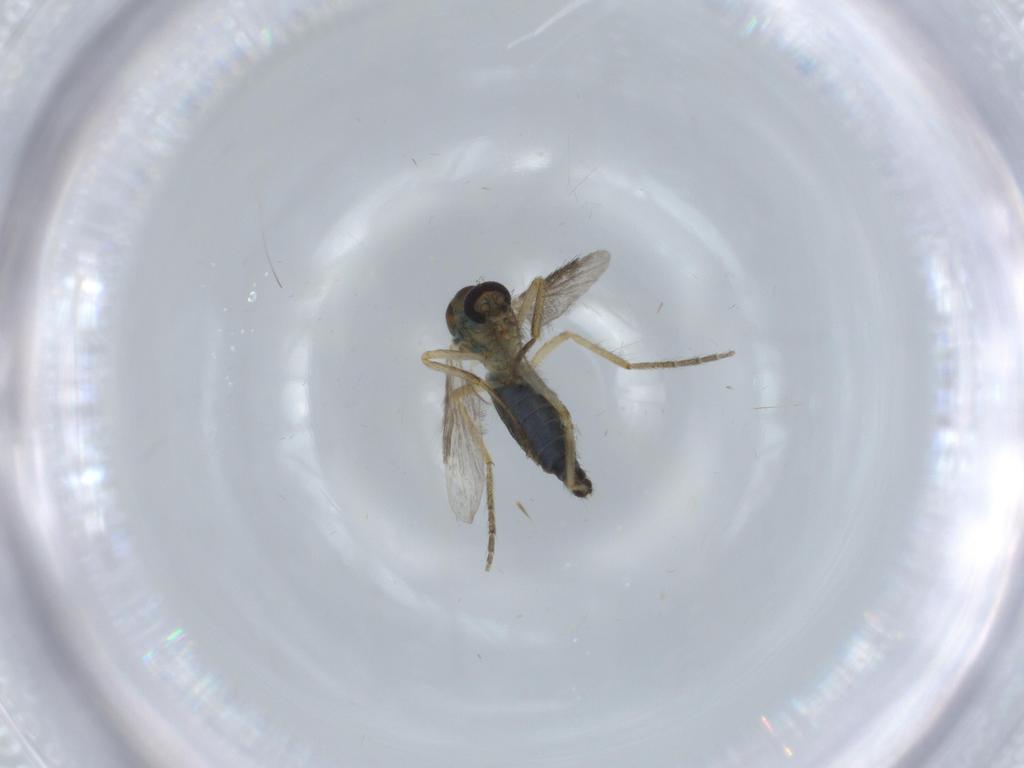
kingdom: Animalia
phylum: Arthropoda
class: Insecta
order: Diptera
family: Ceratopogonidae
